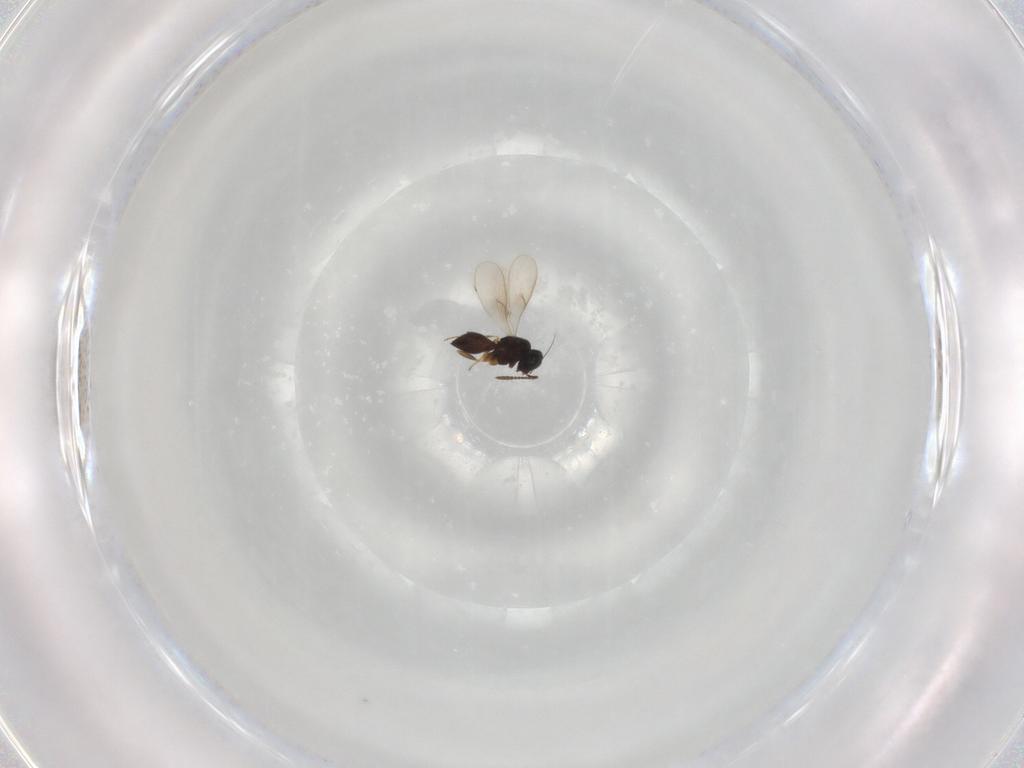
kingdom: Animalia
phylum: Arthropoda
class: Insecta
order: Hymenoptera
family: Scelionidae
